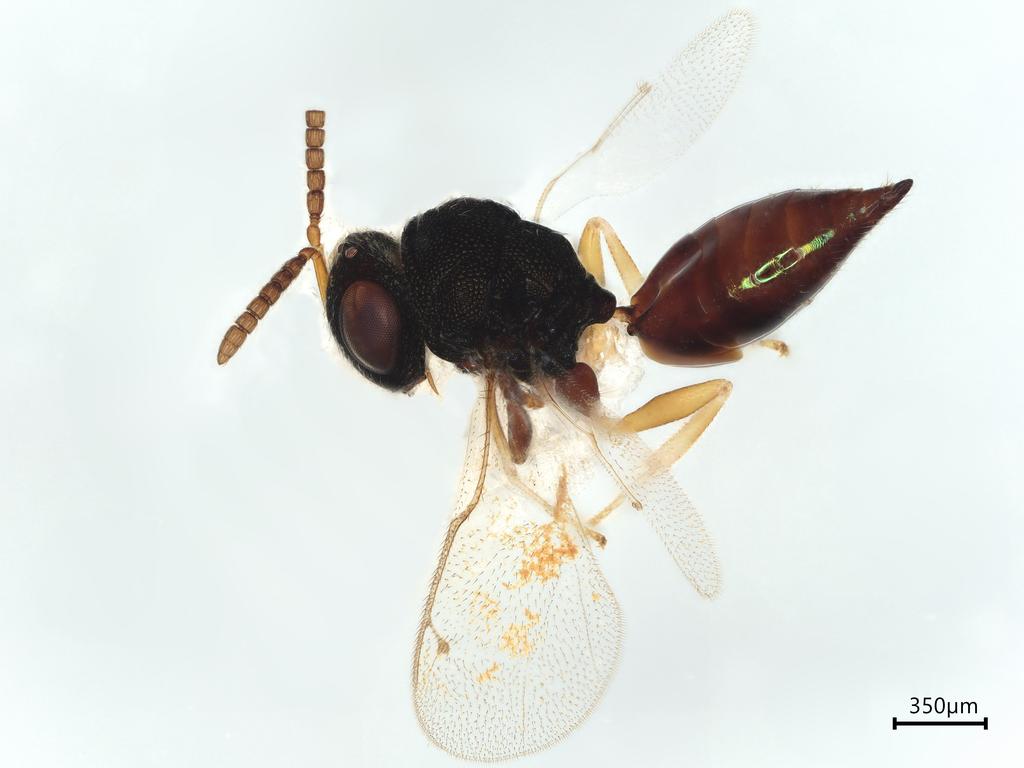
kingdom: Animalia
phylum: Arthropoda
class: Insecta
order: Hymenoptera
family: Pteromalidae
